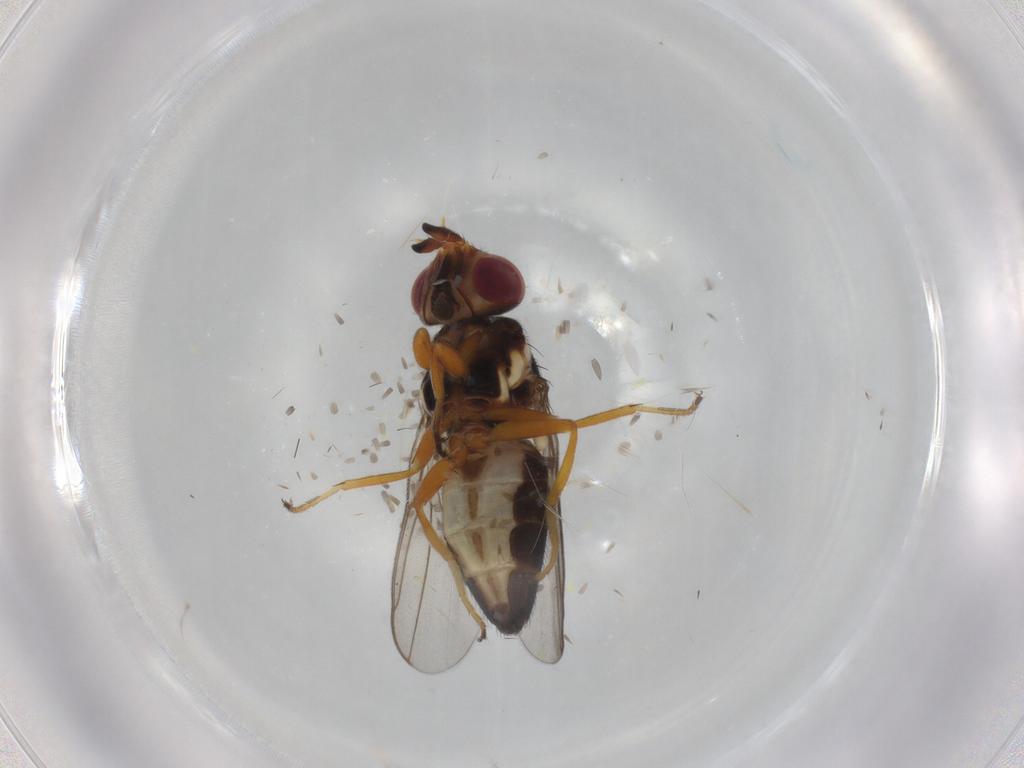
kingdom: Animalia
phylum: Arthropoda
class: Insecta
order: Diptera
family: Chloropidae
